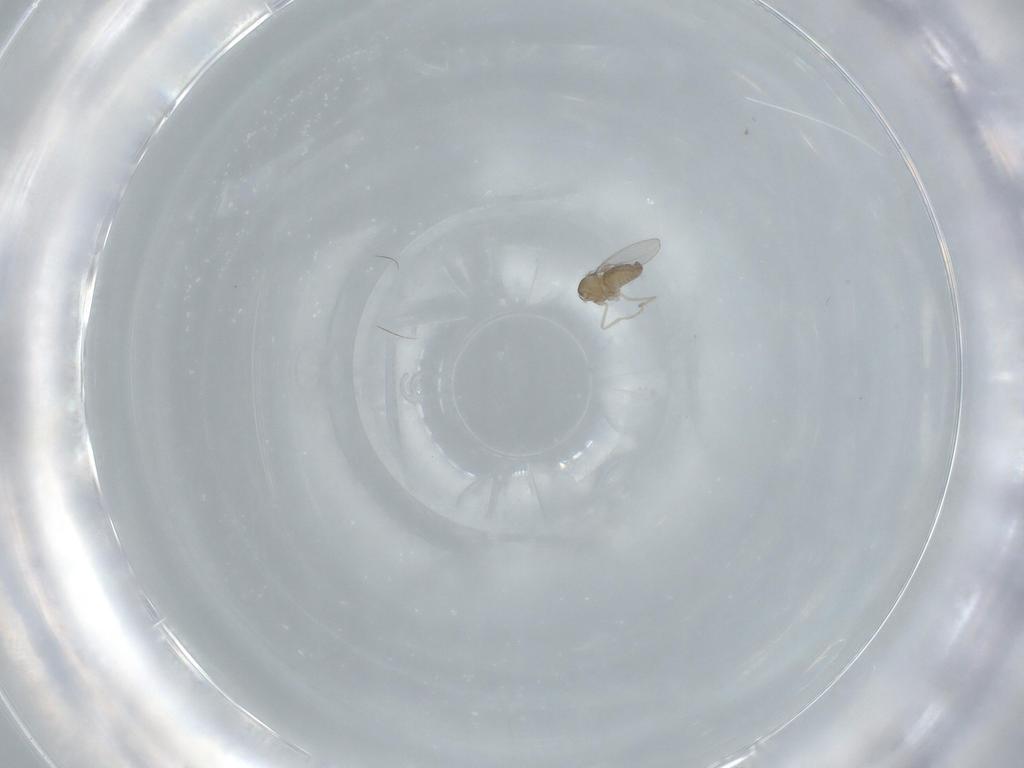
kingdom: Animalia
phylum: Arthropoda
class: Insecta
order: Diptera
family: Cecidomyiidae
